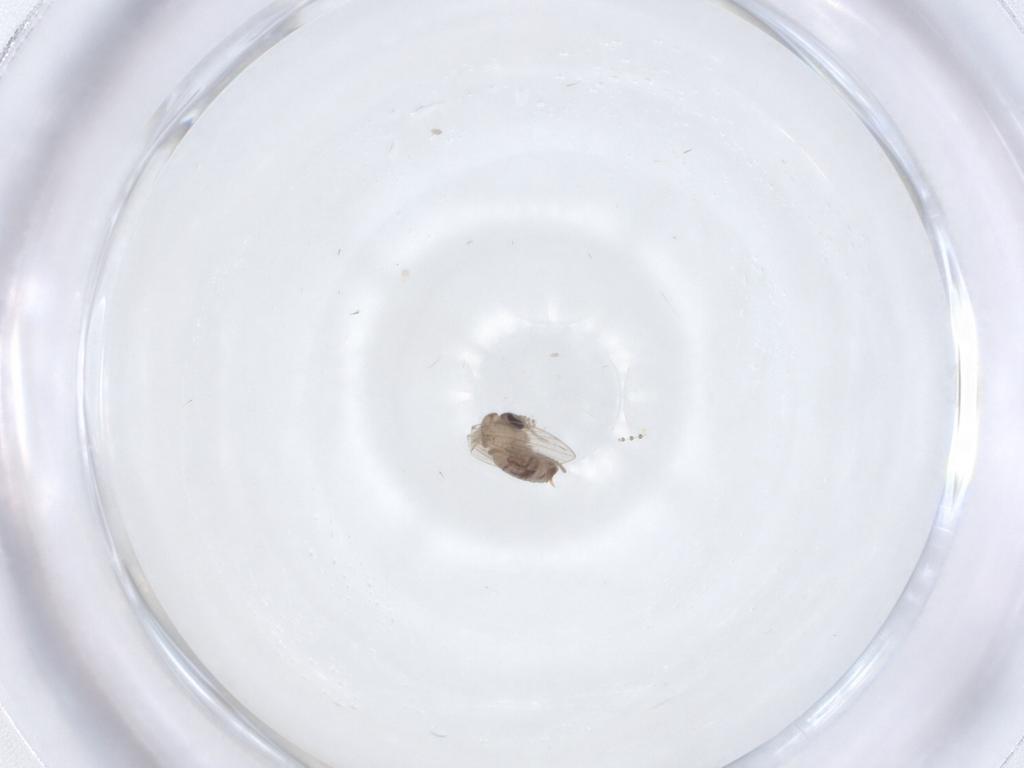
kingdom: Animalia
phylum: Arthropoda
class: Insecta
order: Diptera
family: Psychodidae
